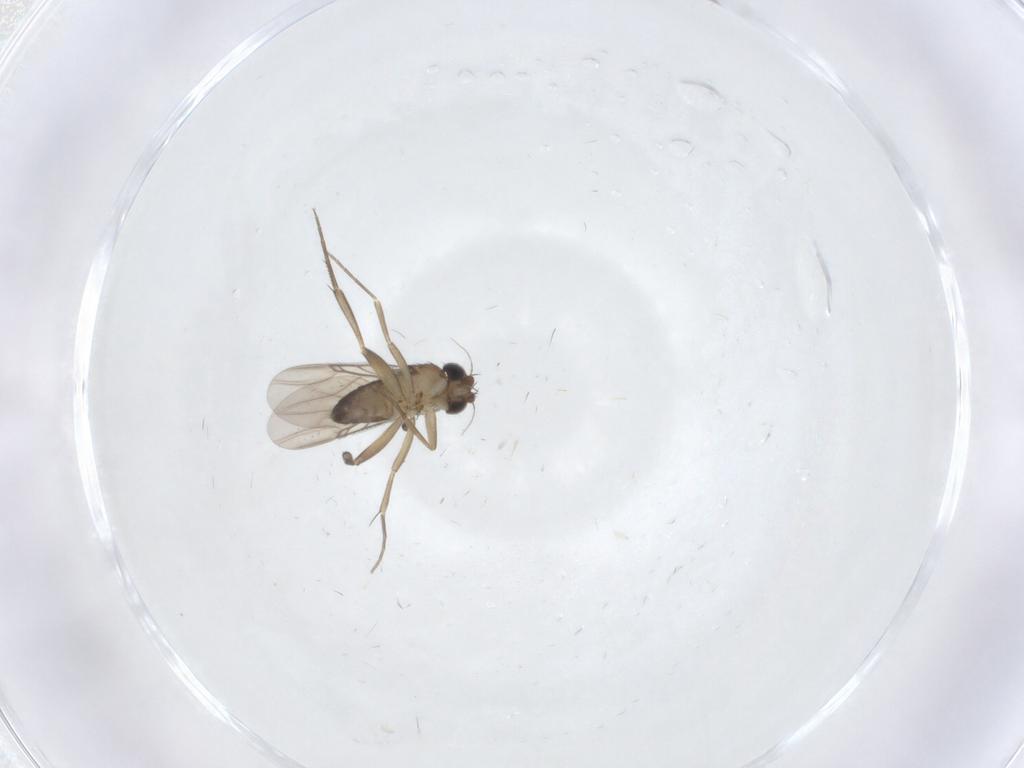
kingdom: Animalia
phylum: Arthropoda
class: Insecta
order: Diptera
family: Phoridae
